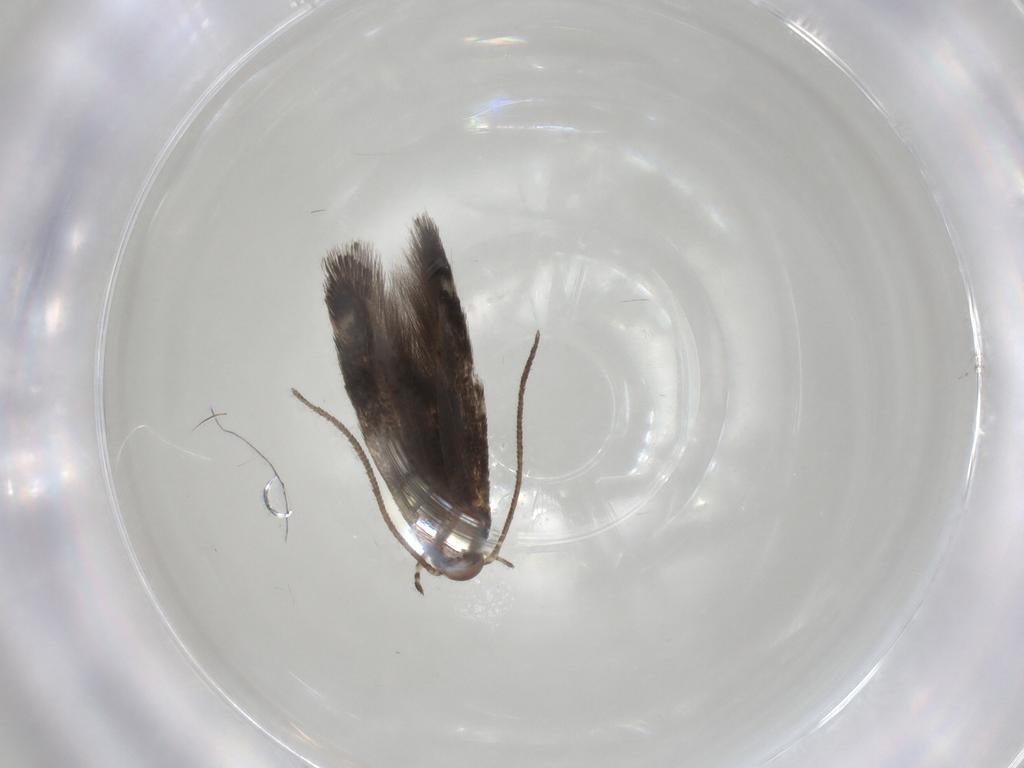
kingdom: Animalia
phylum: Arthropoda
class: Insecta
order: Lepidoptera
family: Elachistidae
